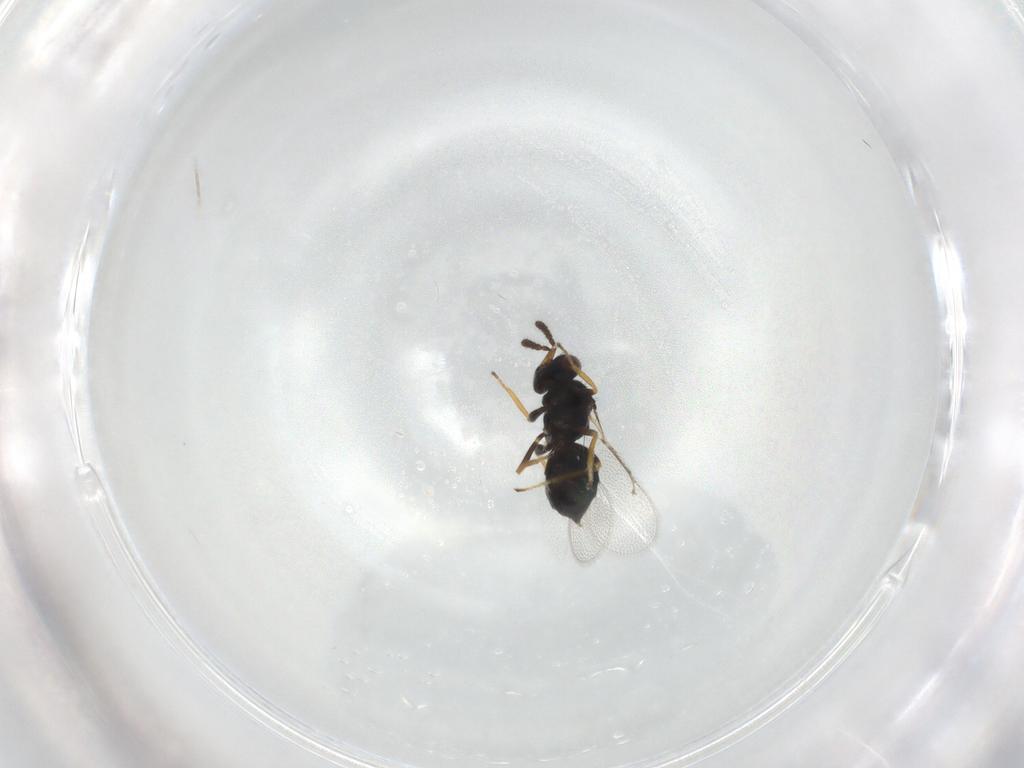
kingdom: Animalia
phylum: Arthropoda
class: Insecta
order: Hymenoptera
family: Eulophidae
